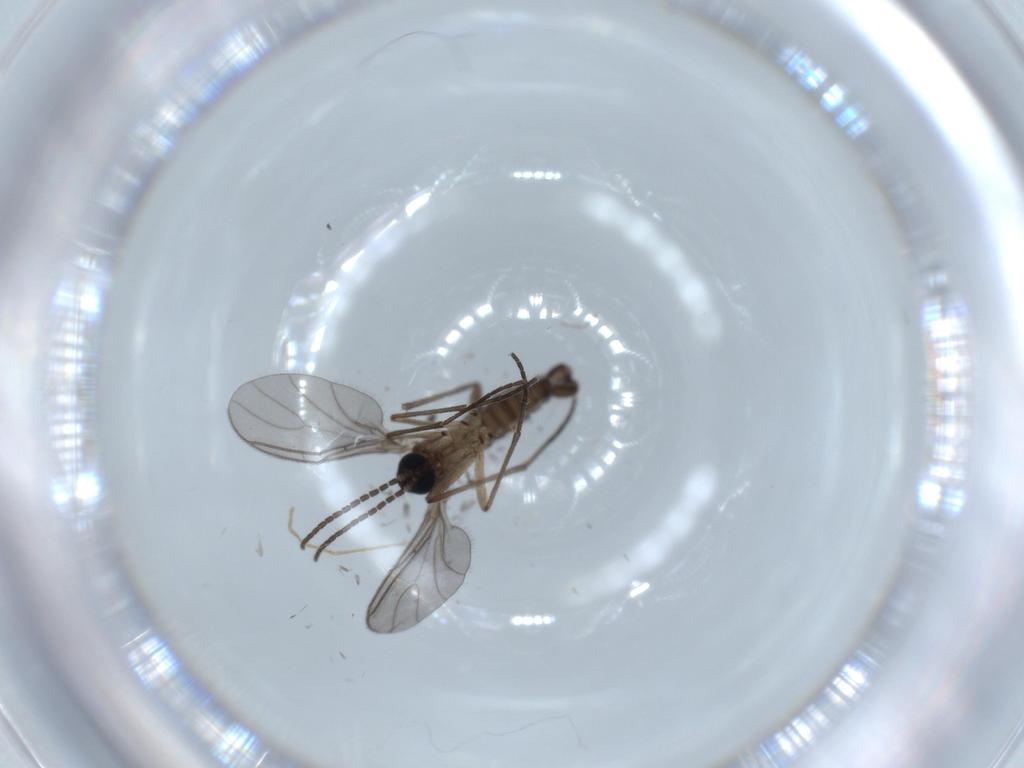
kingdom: Animalia
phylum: Arthropoda
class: Insecta
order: Diptera
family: Sciaridae
